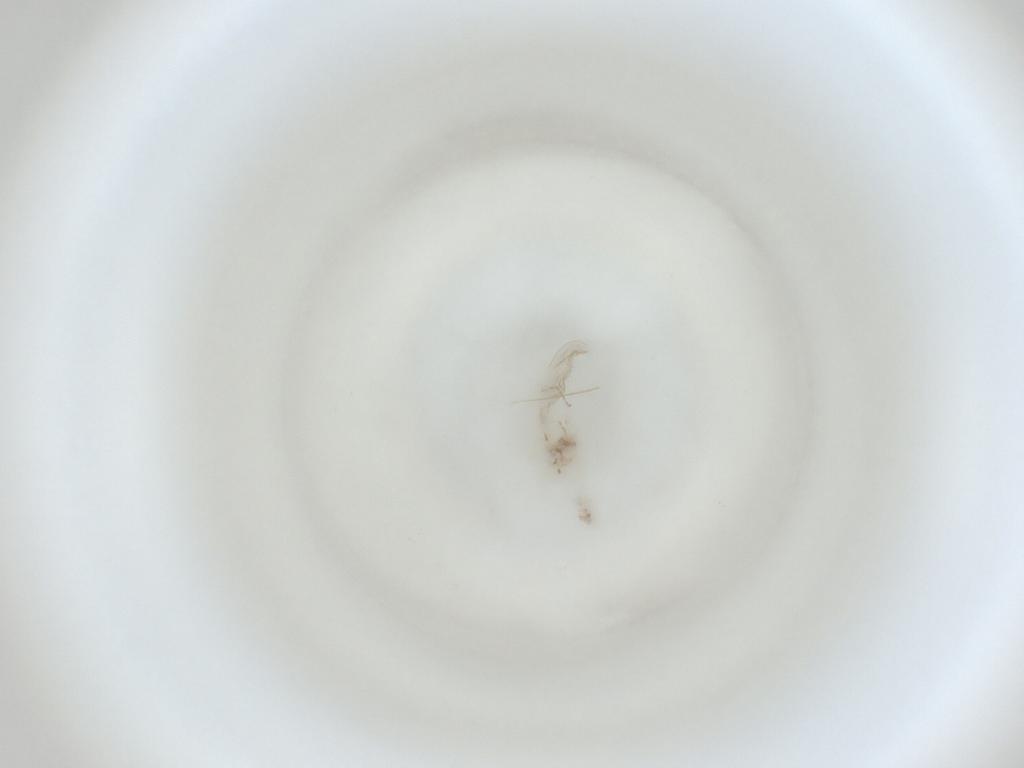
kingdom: Animalia
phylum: Arthropoda
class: Insecta
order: Diptera
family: Cecidomyiidae
